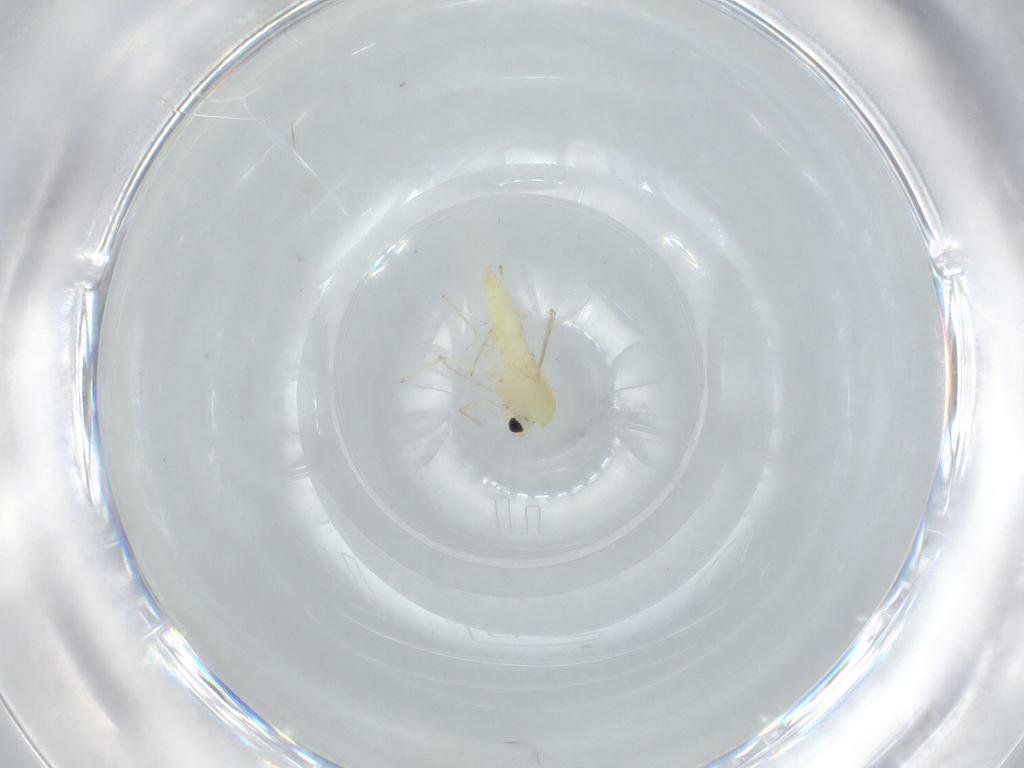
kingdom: Animalia
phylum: Arthropoda
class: Insecta
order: Diptera
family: Chironomidae
